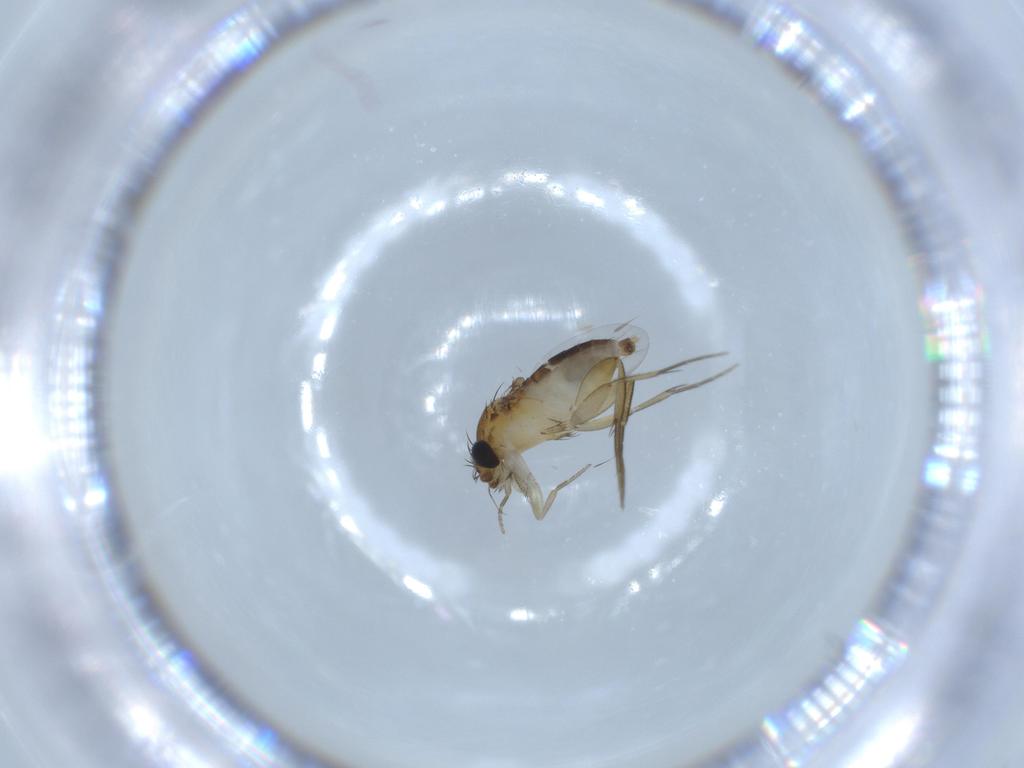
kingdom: Animalia
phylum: Arthropoda
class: Insecta
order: Diptera
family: Phoridae
